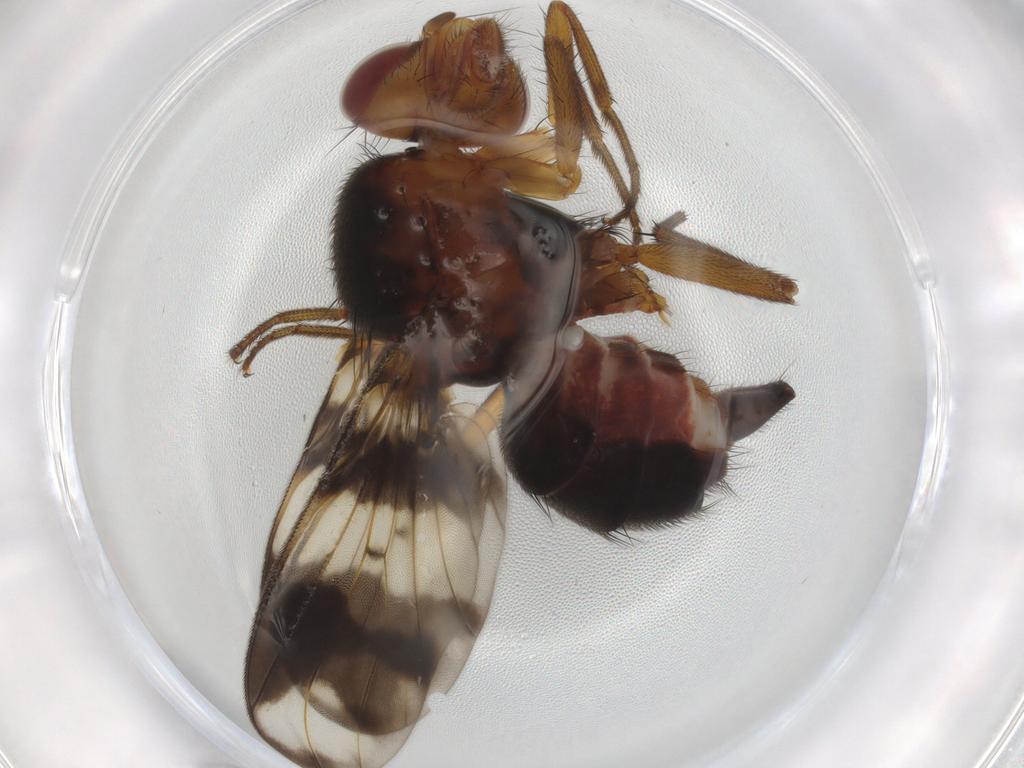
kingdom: Animalia
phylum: Arthropoda
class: Insecta
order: Diptera
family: Richardiidae
